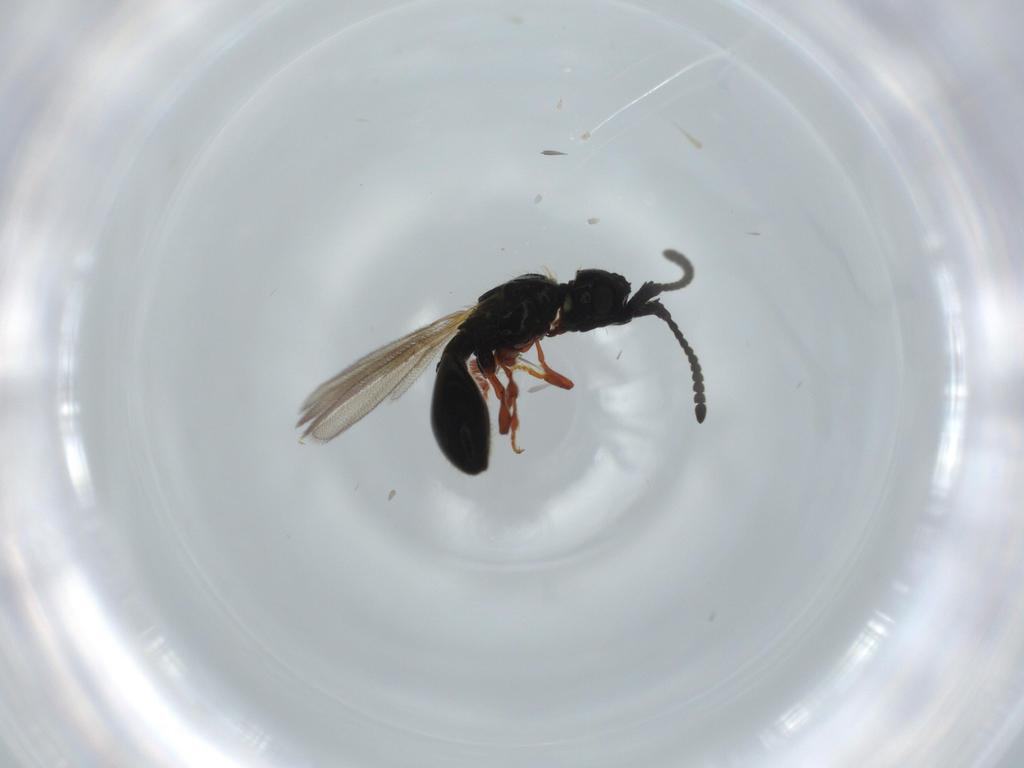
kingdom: Animalia
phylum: Arthropoda
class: Insecta
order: Hymenoptera
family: Diapriidae
